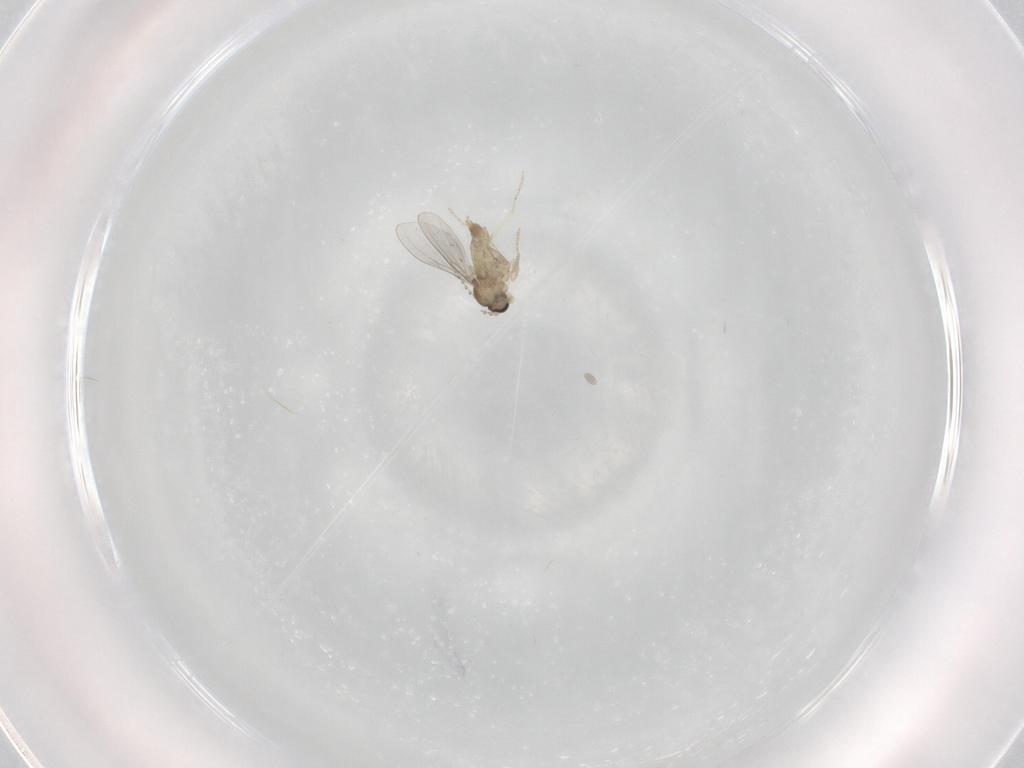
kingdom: Animalia
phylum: Arthropoda
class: Insecta
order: Diptera
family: Cecidomyiidae
